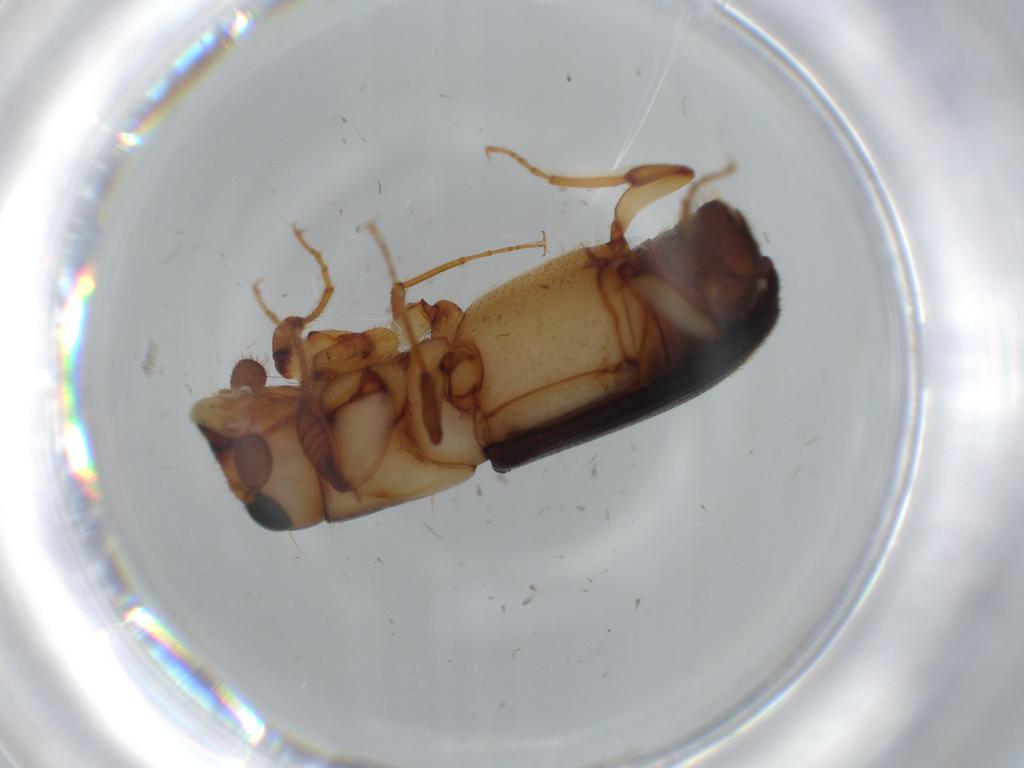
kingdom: Animalia
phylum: Arthropoda
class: Insecta
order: Coleoptera
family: Curculionidae
